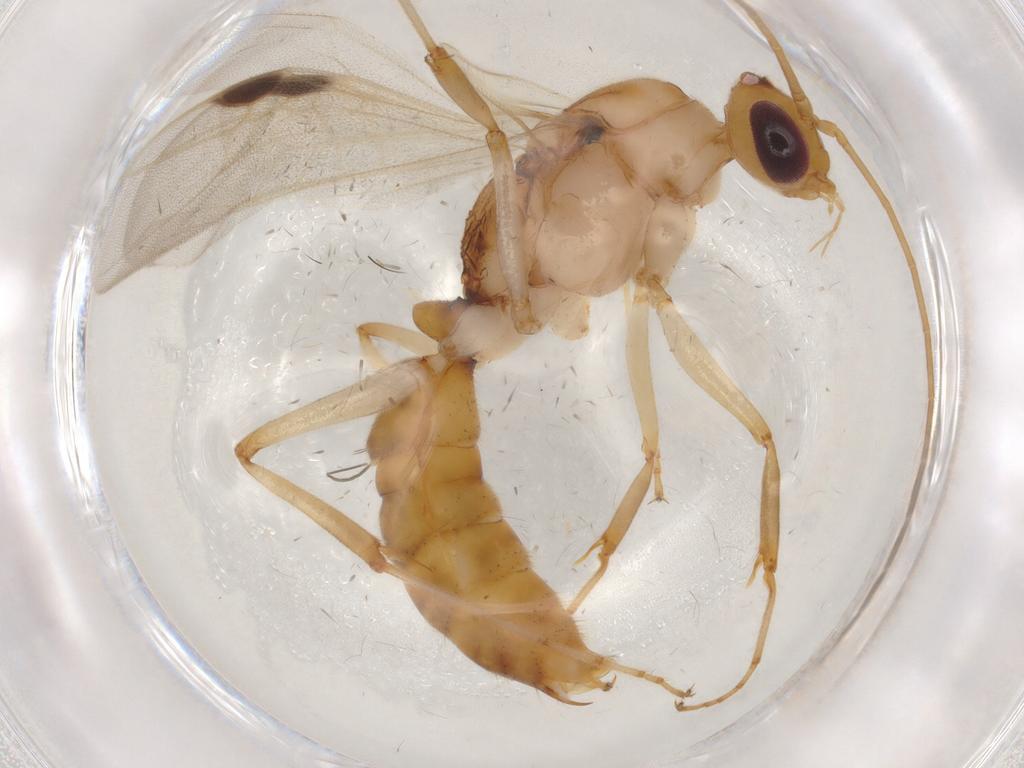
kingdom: Animalia
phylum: Arthropoda
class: Insecta
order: Hymenoptera
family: Formicidae
